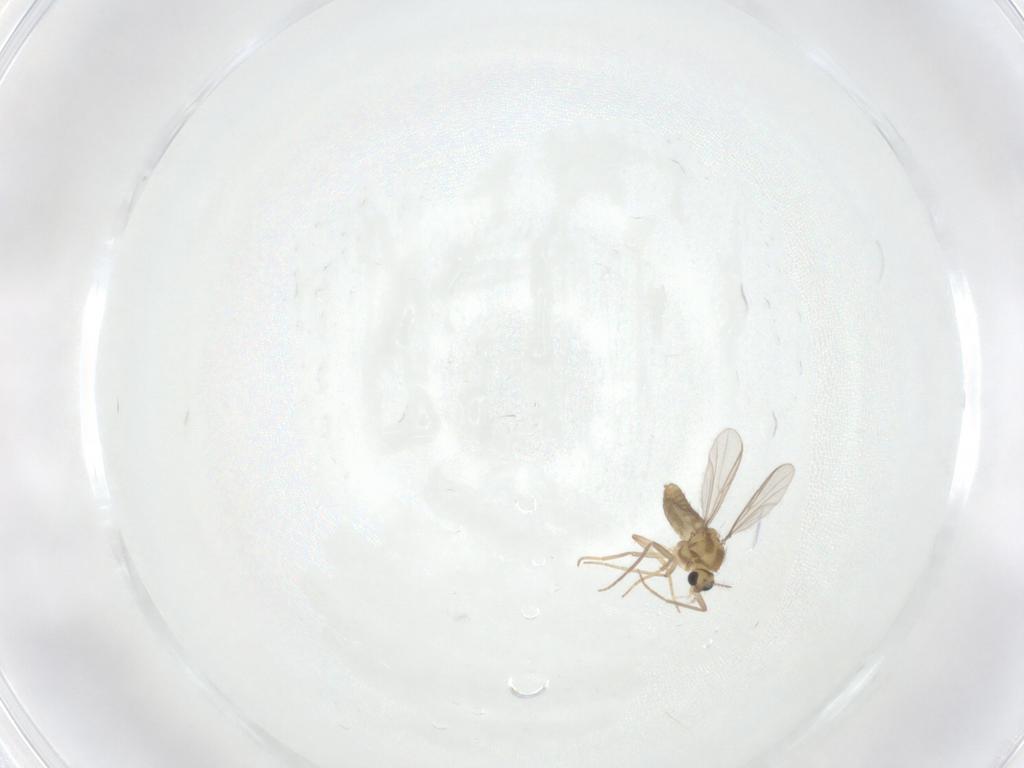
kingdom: Animalia
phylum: Arthropoda
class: Insecta
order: Diptera
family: Chironomidae
